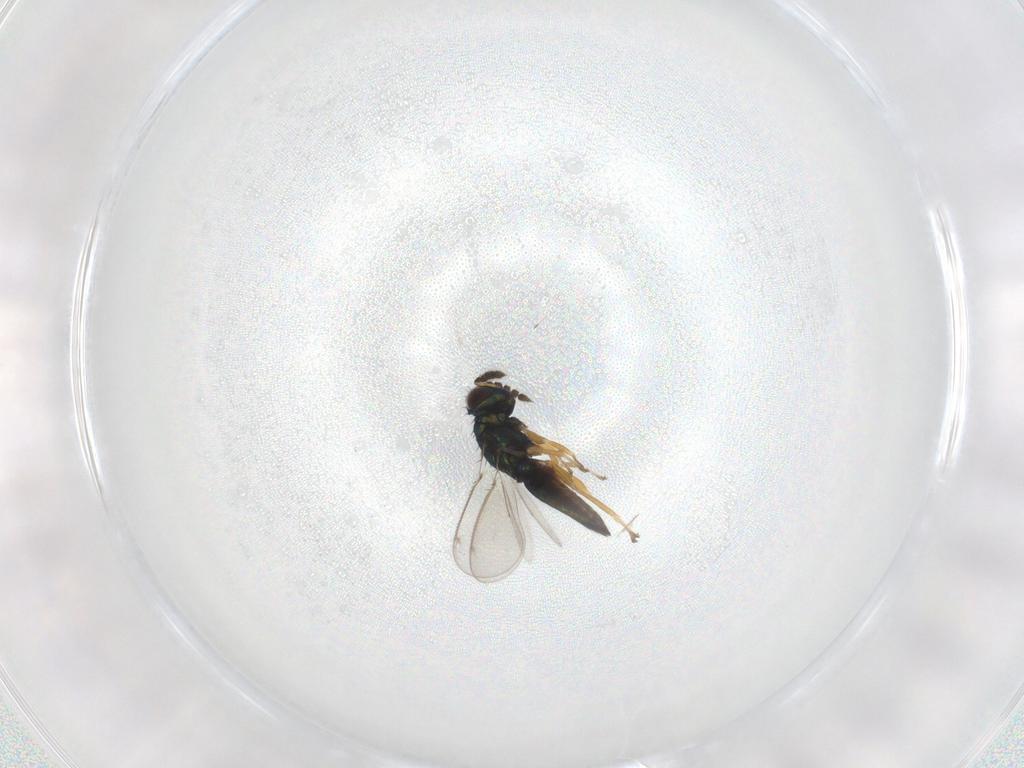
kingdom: Animalia
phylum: Arthropoda
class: Insecta
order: Hymenoptera
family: Eulophidae
